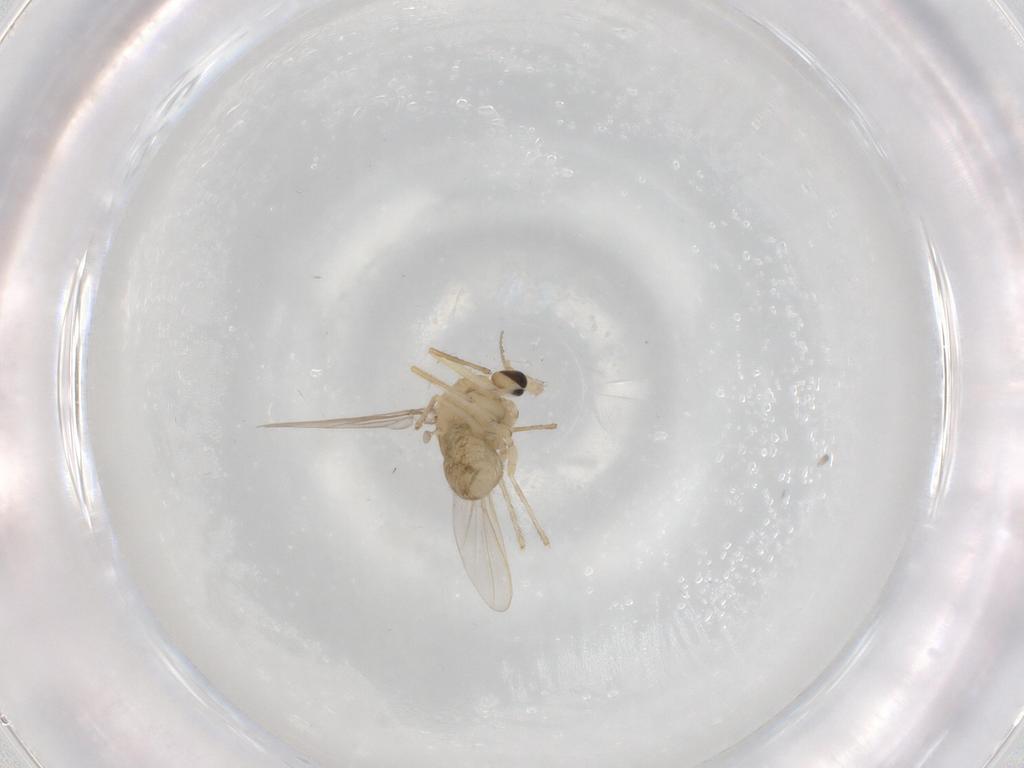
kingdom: Animalia
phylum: Arthropoda
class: Insecta
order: Diptera
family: Chironomidae
